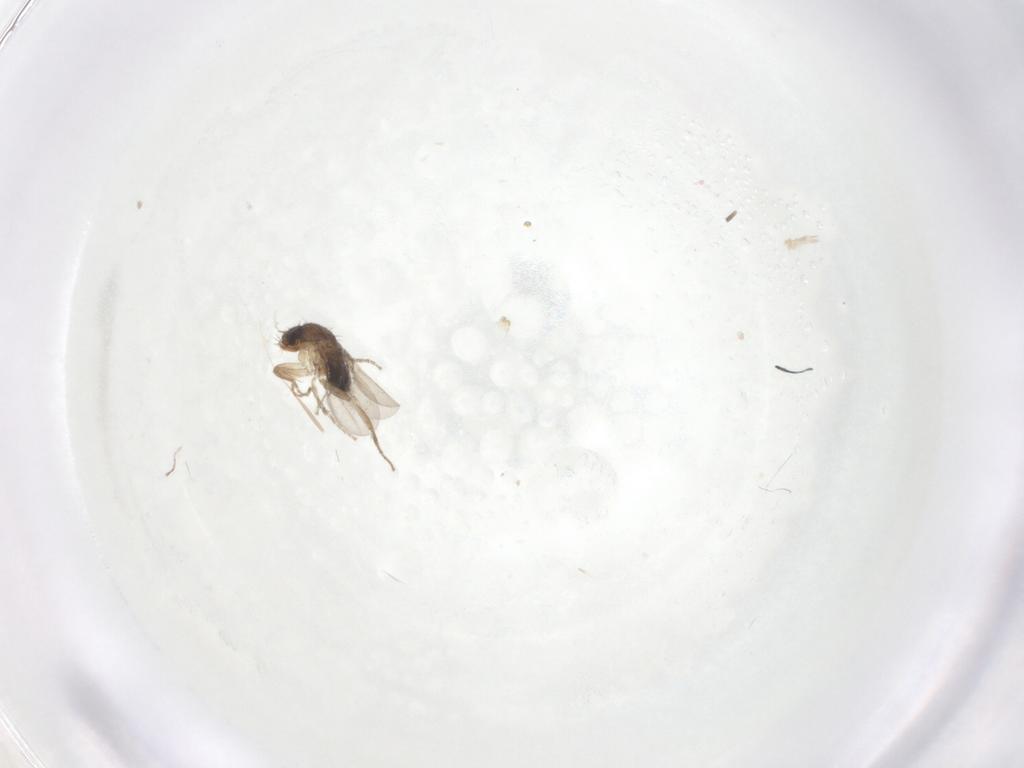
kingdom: Animalia
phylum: Arthropoda
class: Insecta
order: Diptera
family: Phoridae
